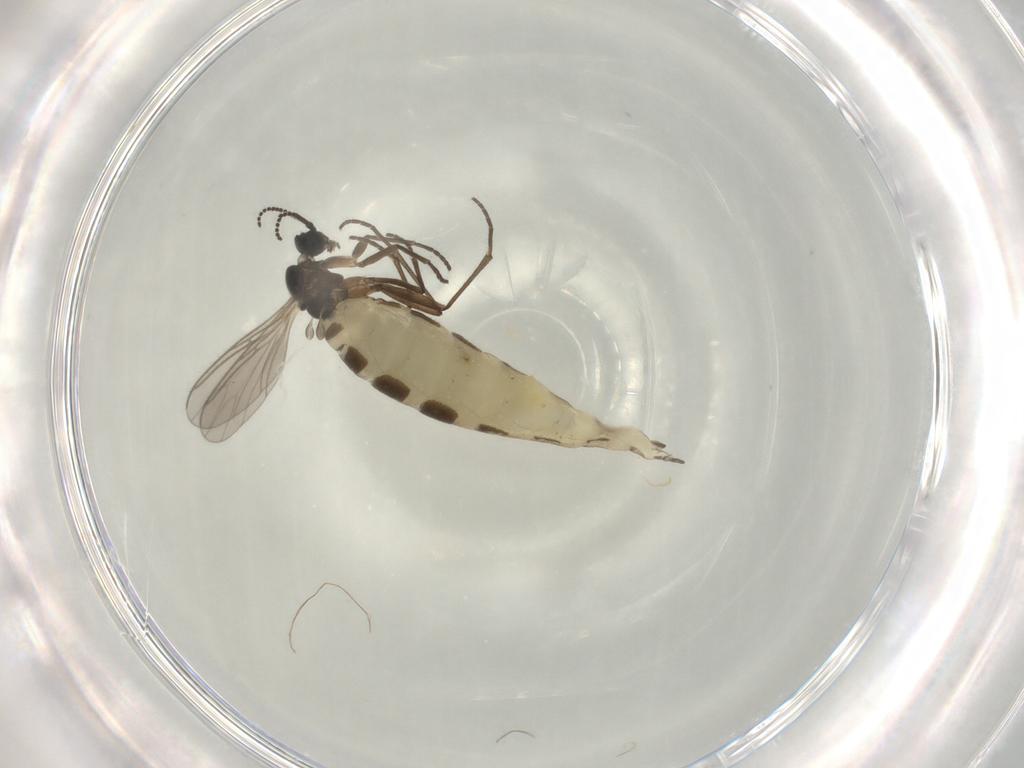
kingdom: Animalia
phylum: Arthropoda
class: Insecta
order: Diptera
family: Sciaridae
